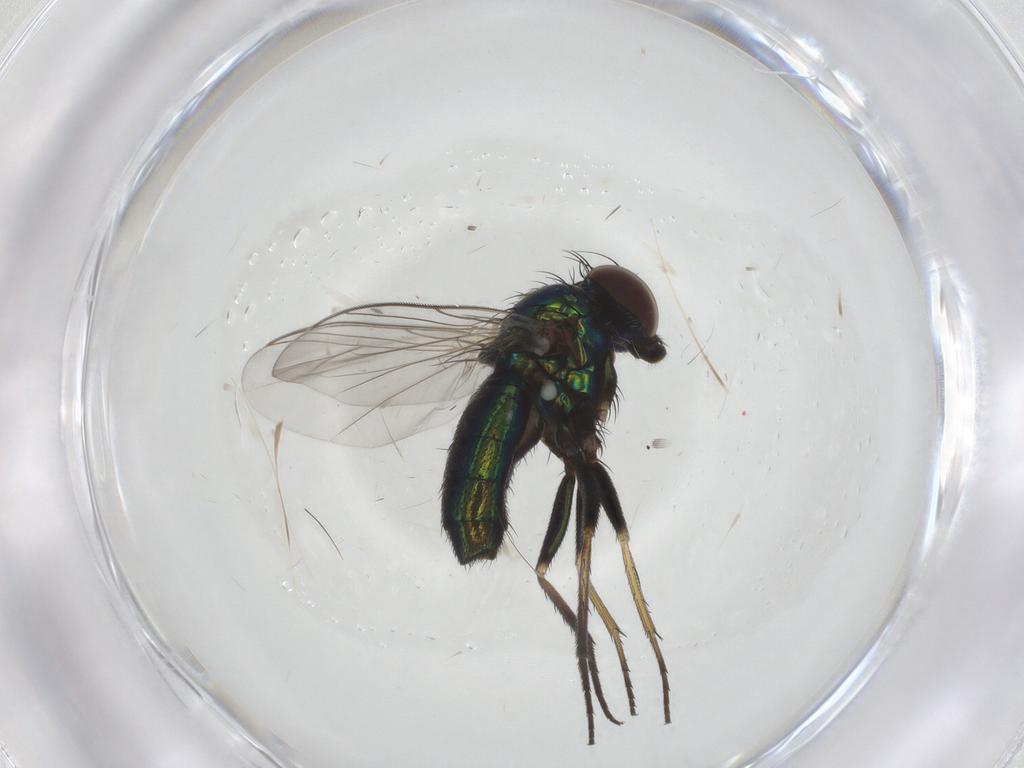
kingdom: Animalia
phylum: Arthropoda
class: Insecta
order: Diptera
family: Dolichopodidae
